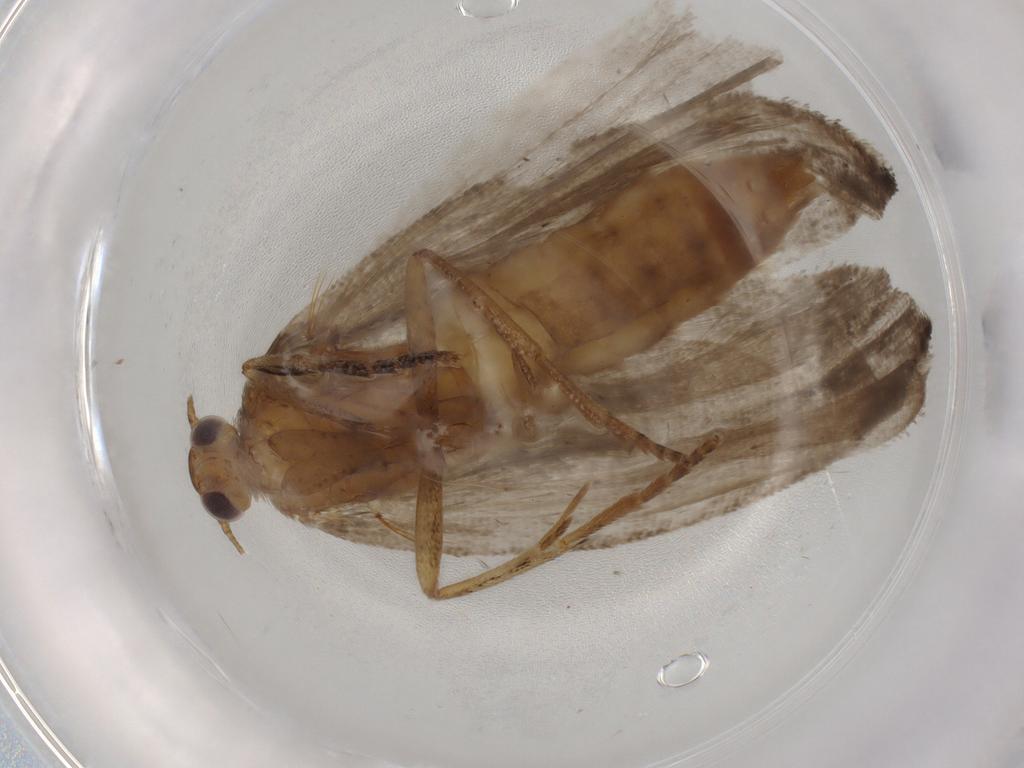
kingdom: Animalia
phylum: Arthropoda
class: Insecta
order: Lepidoptera
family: Tortricidae
